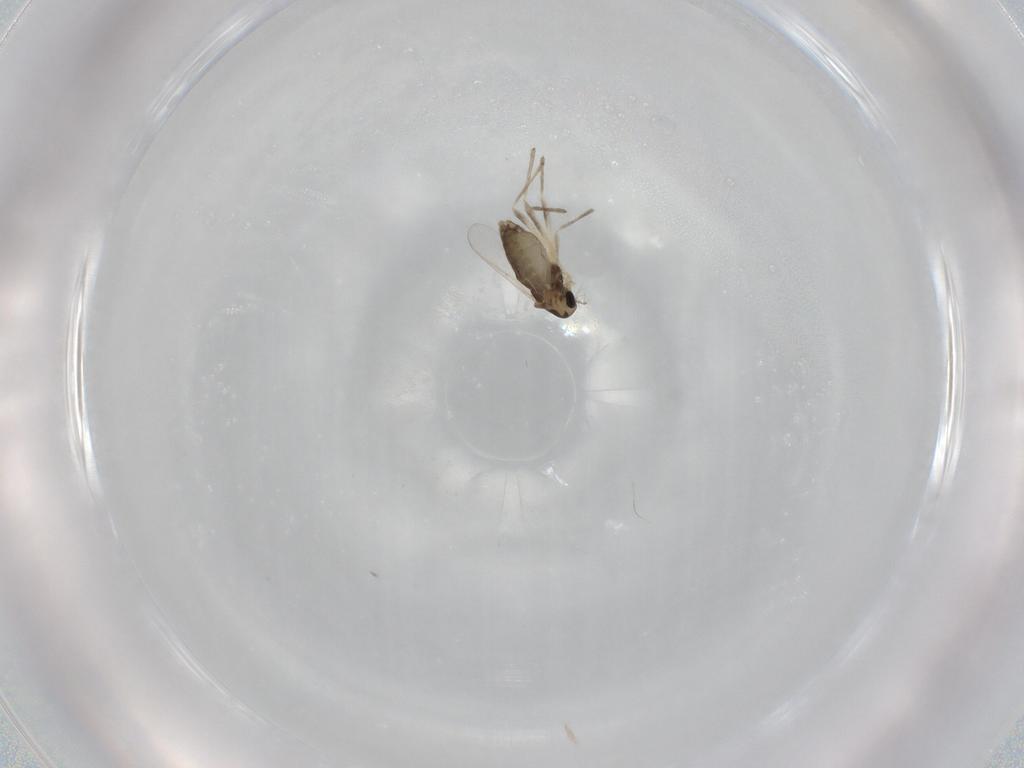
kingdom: Animalia
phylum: Arthropoda
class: Insecta
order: Diptera
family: Chironomidae
